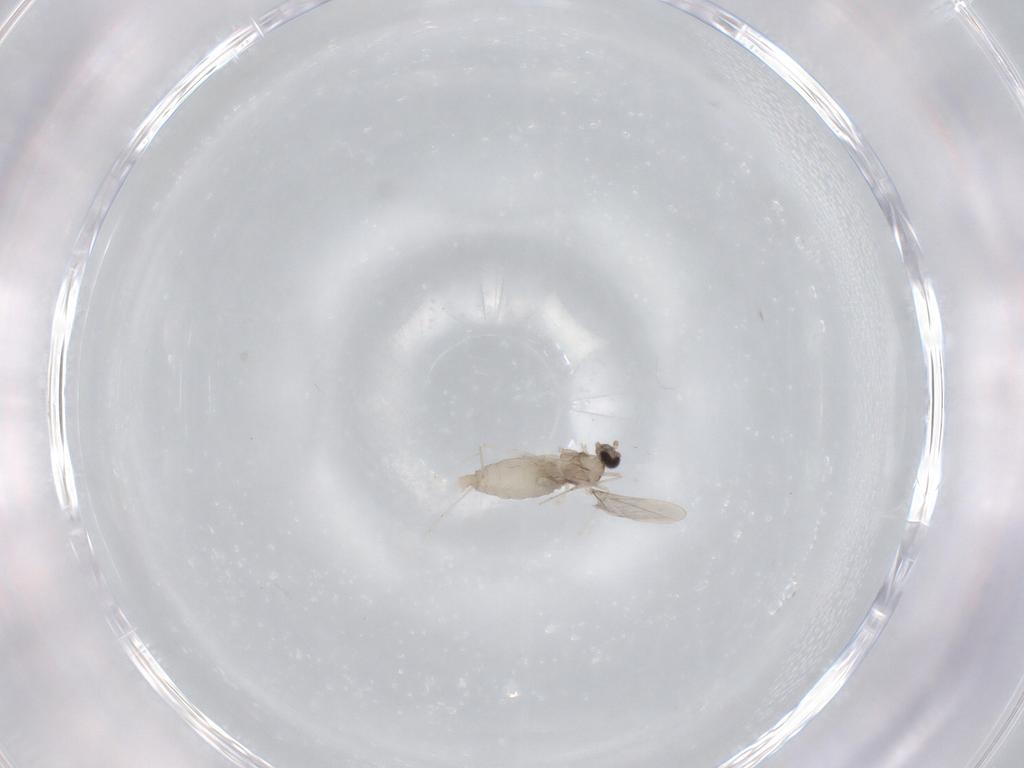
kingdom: Animalia
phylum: Arthropoda
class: Insecta
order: Diptera
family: Cecidomyiidae
